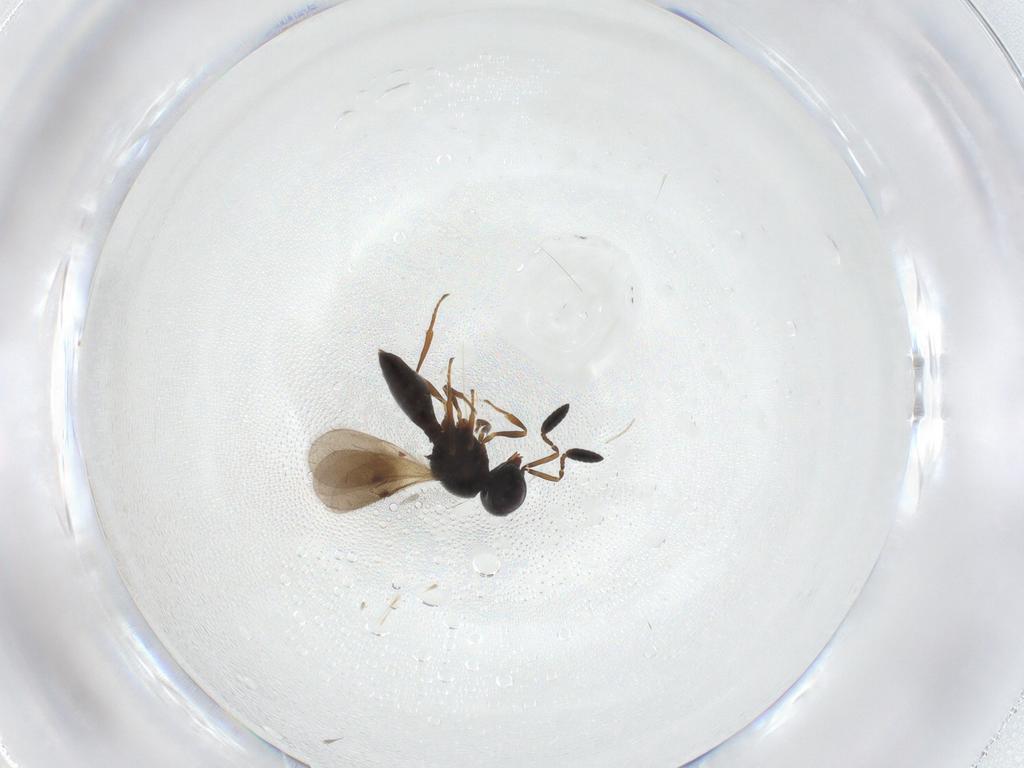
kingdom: Animalia
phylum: Arthropoda
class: Insecta
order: Hymenoptera
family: Scelionidae
